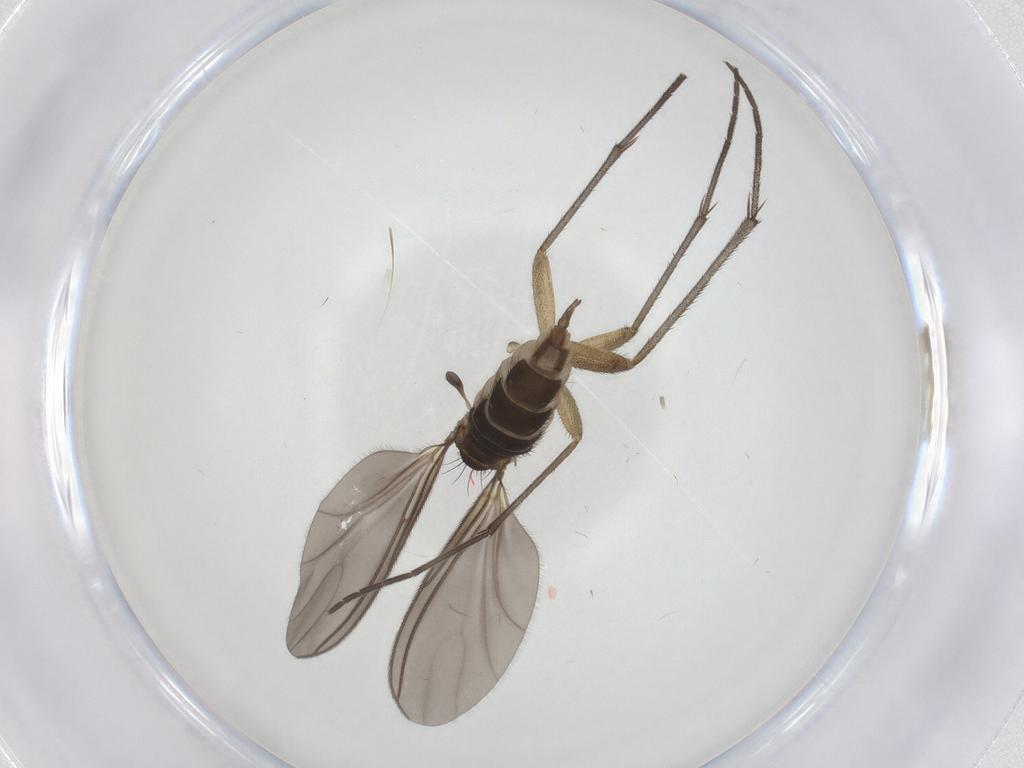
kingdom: Animalia
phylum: Arthropoda
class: Insecta
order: Diptera
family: Sciaridae
